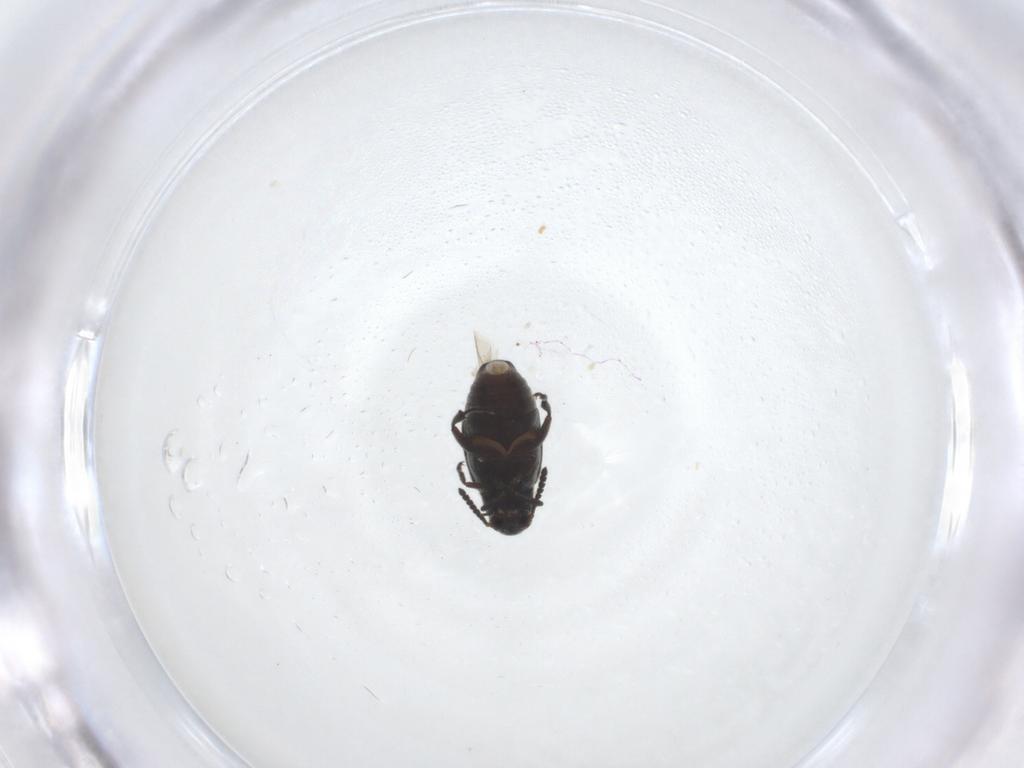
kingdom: Animalia
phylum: Arthropoda
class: Insecta
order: Coleoptera
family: Chrysomelidae
